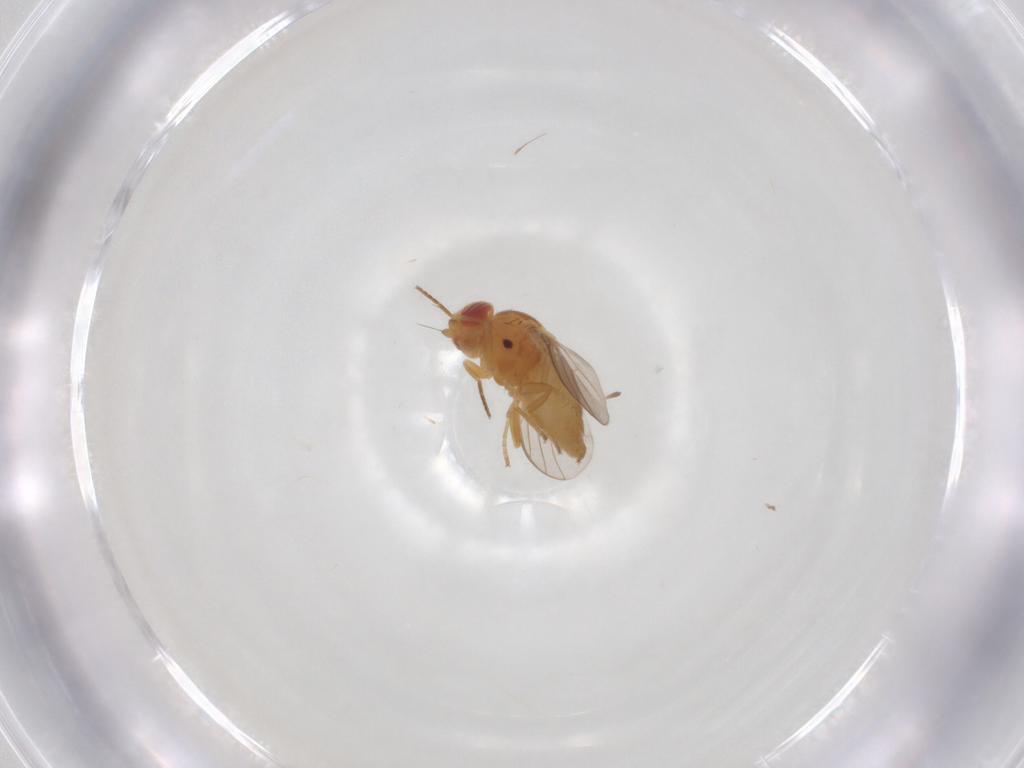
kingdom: Animalia
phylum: Arthropoda
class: Insecta
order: Diptera
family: Chloropidae
